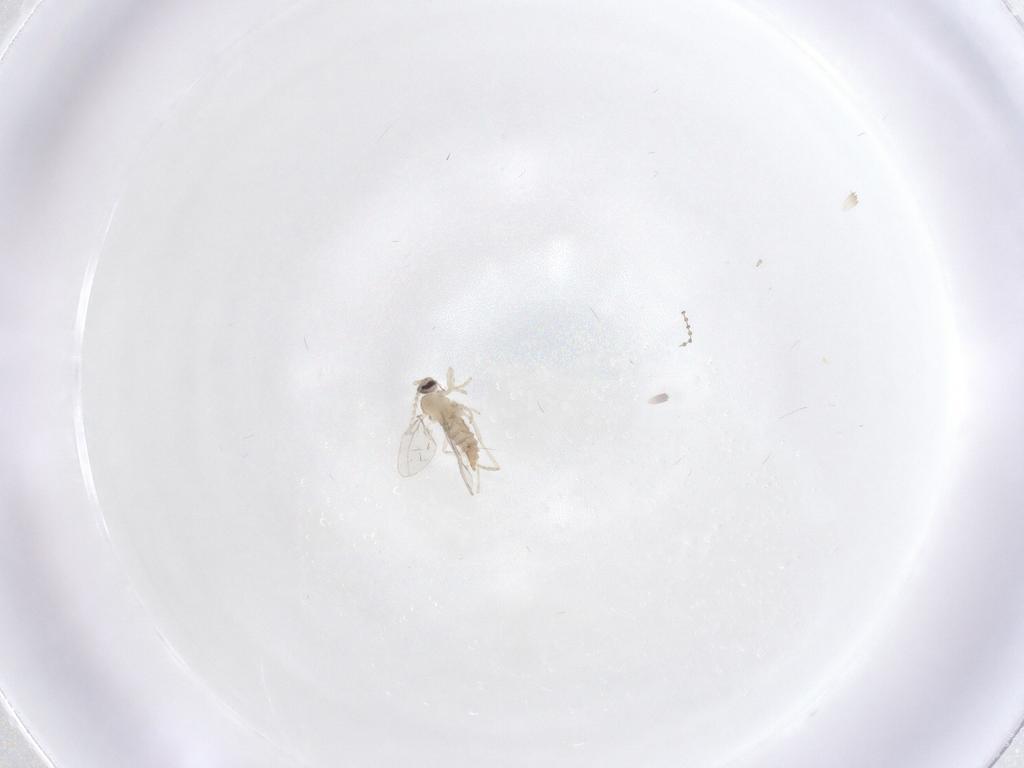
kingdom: Animalia
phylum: Arthropoda
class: Insecta
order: Diptera
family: Cecidomyiidae
